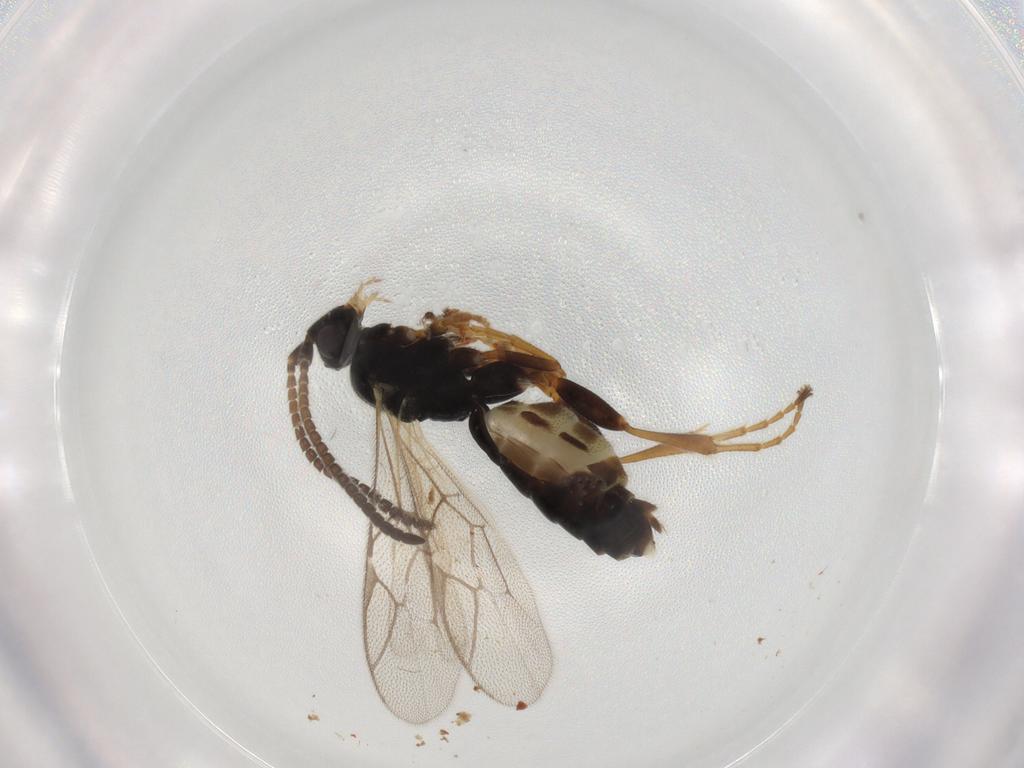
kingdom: Animalia
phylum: Arthropoda
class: Insecta
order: Hymenoptera
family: Ichneumonidae
